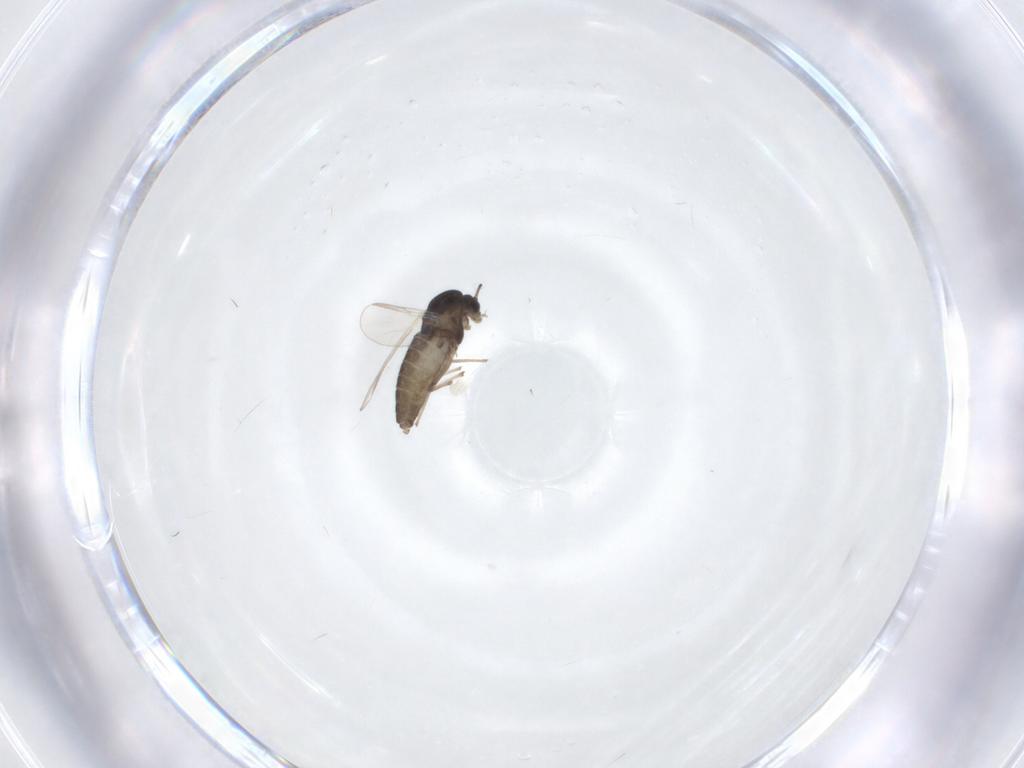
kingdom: Animalia
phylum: Arthropoda
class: Insecta
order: Diptera
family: Chironomidae
